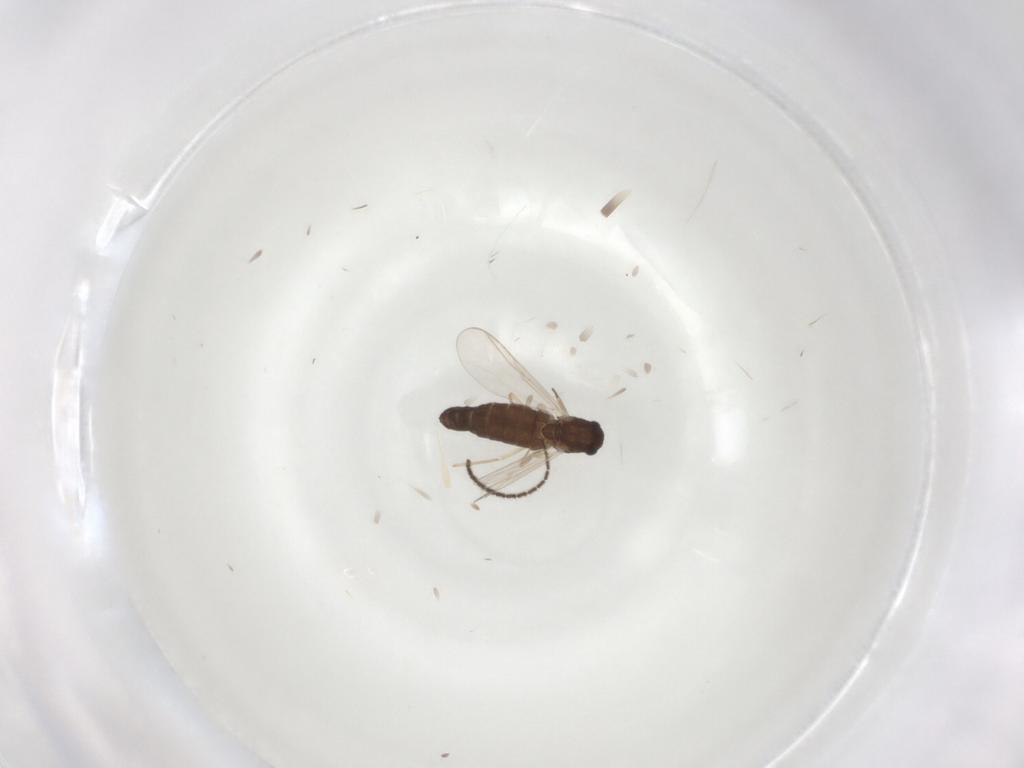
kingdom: Animalia
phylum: Arthropoda
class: Insecta
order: Diptera
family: Chironomidae
